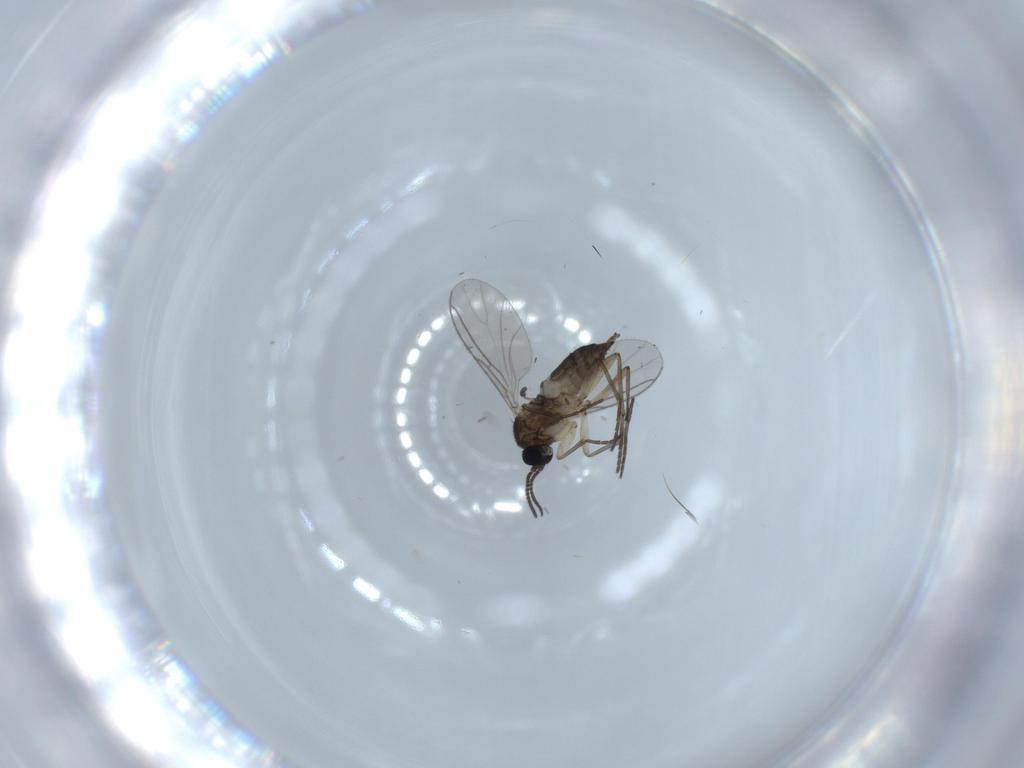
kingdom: Animalia
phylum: Arthropoda
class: Insecta
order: Diptera
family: Sciaridae
